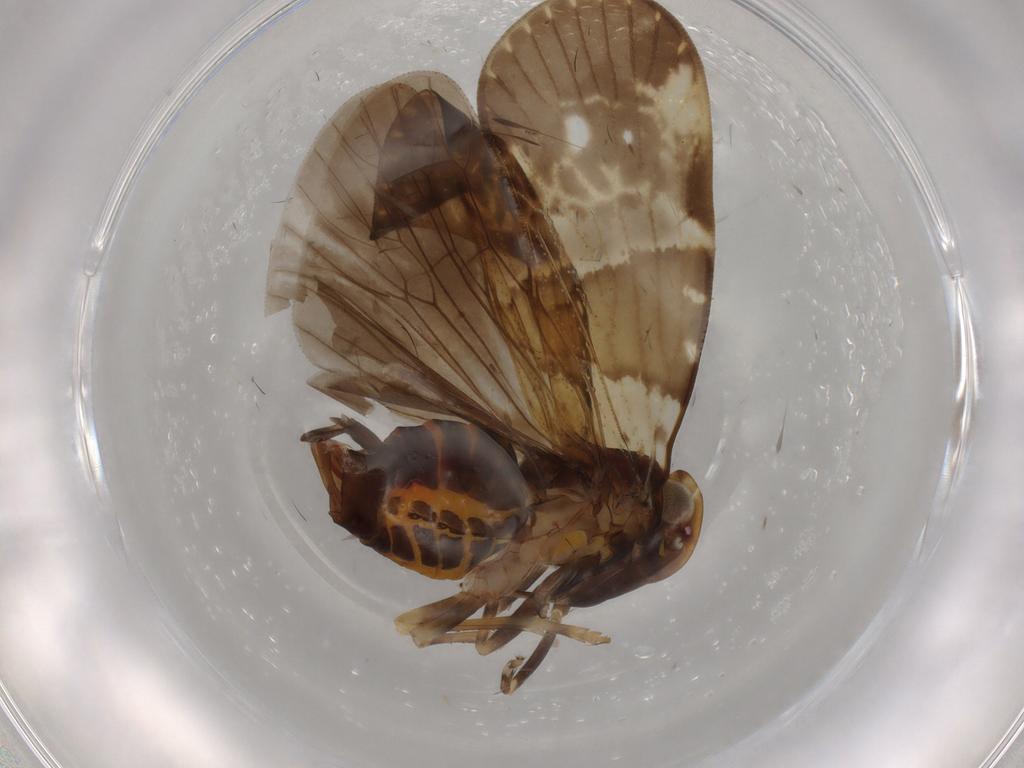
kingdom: Animalia
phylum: Arthropoda
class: Insecta
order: Hemiptera
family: Cixiidae
